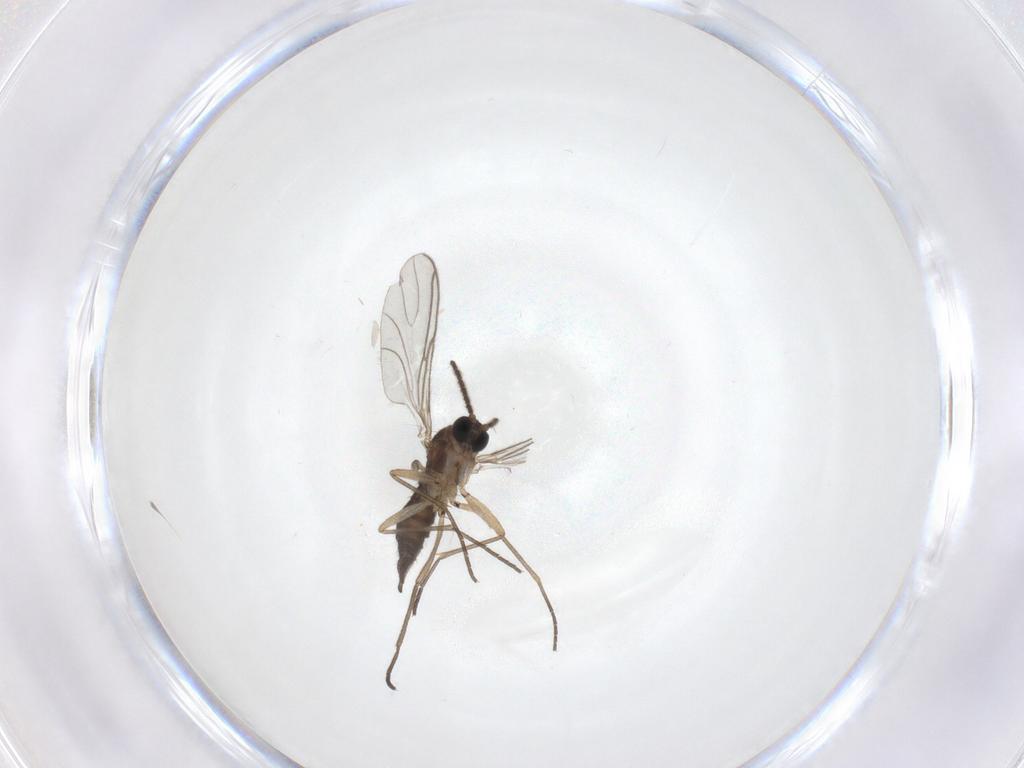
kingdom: Animalia
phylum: Arthropoda
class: Insecta
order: Diptera
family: Sciaridae
